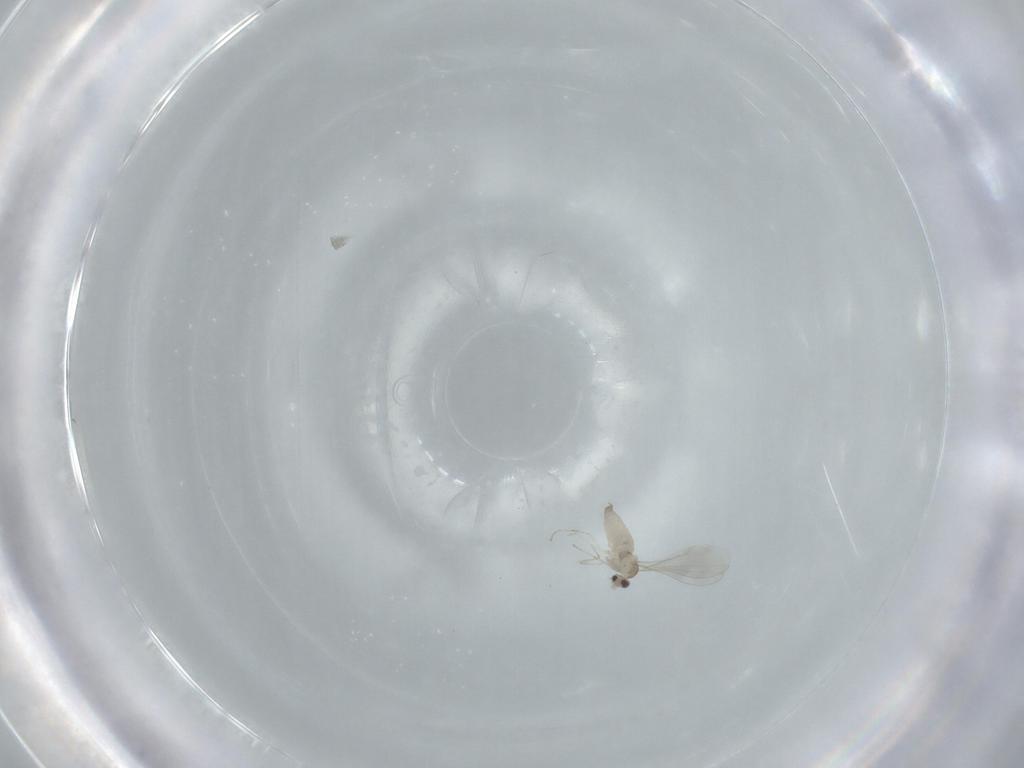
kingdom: Animalia
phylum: Arthropoda
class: Insecta
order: Diptera
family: Cecidomyiidae
